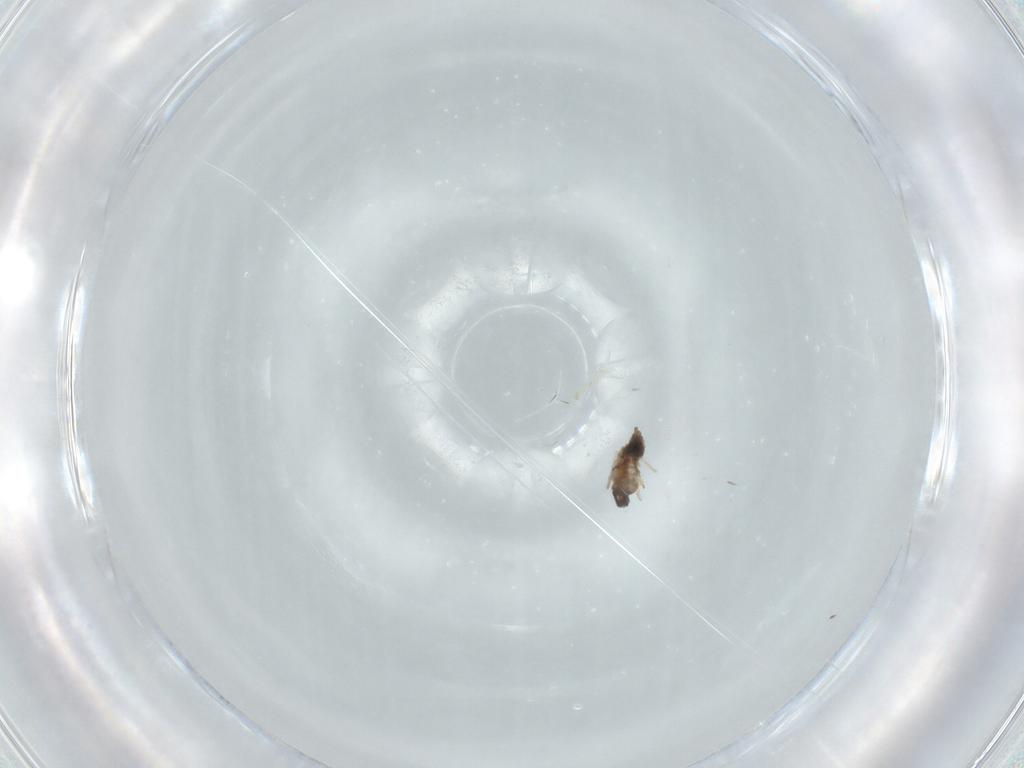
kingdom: Animalia
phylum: Arthropoda
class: Insecta
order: Diptera
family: Cecidomyiidae
